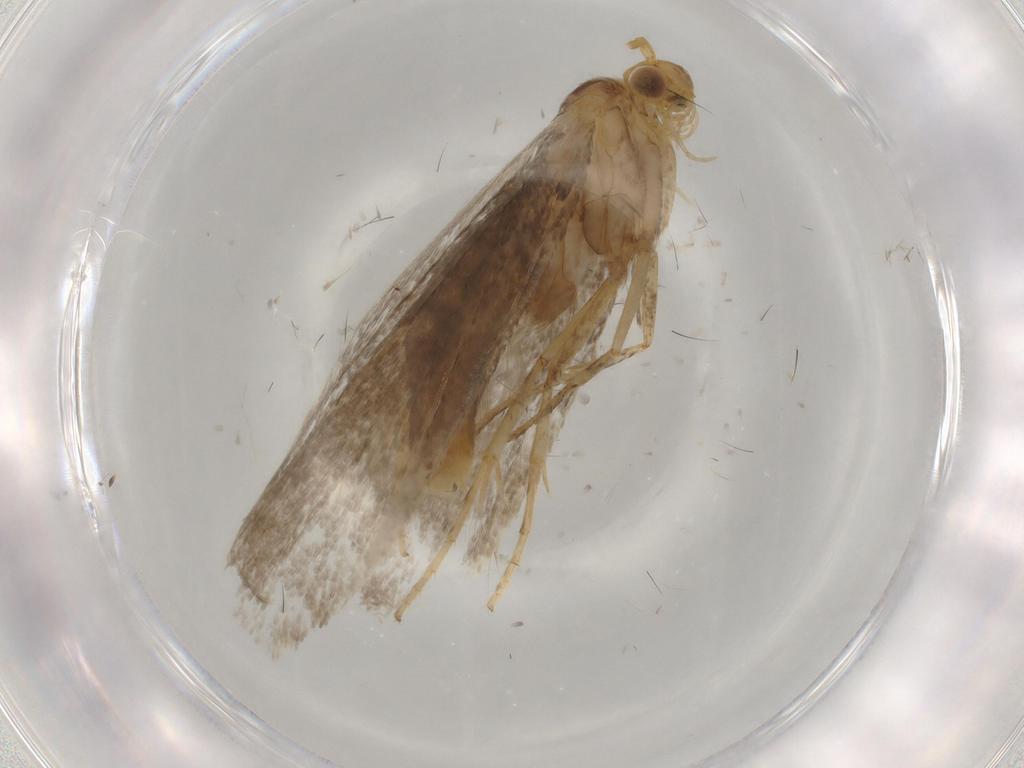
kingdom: Animalia
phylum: Arthropoda
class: Insecta
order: Lepidoptera
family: Argyresthiidae
